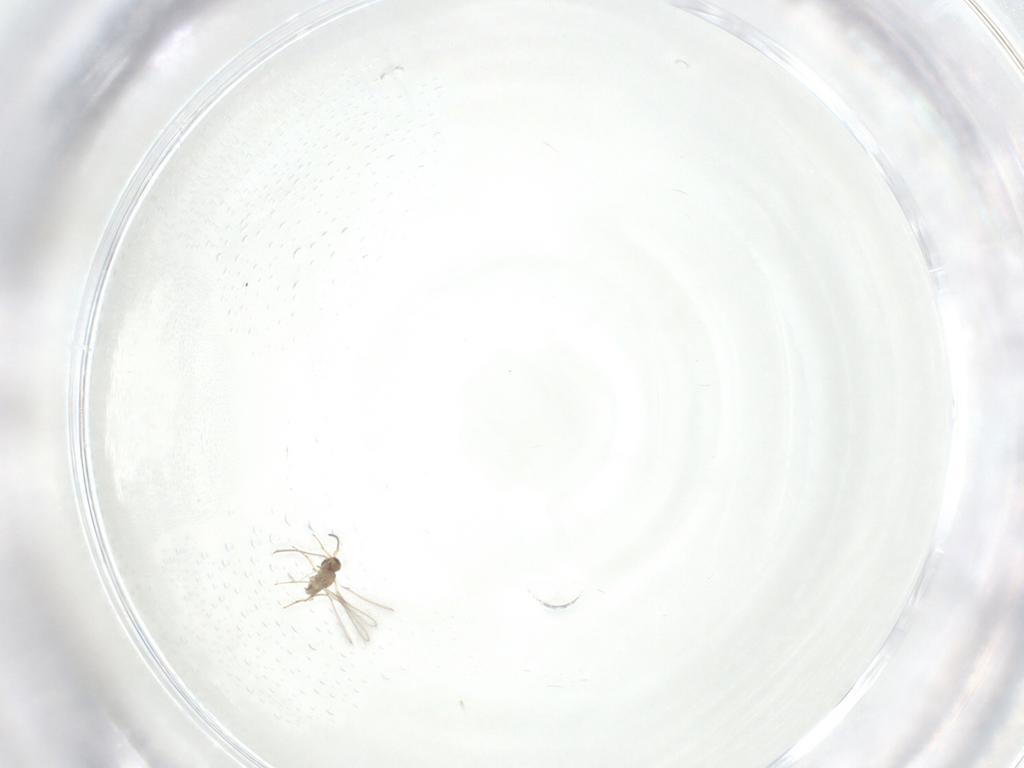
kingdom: Animalia
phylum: Arthropoda
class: Insecta
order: Hymenoptera
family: Mymaridae
